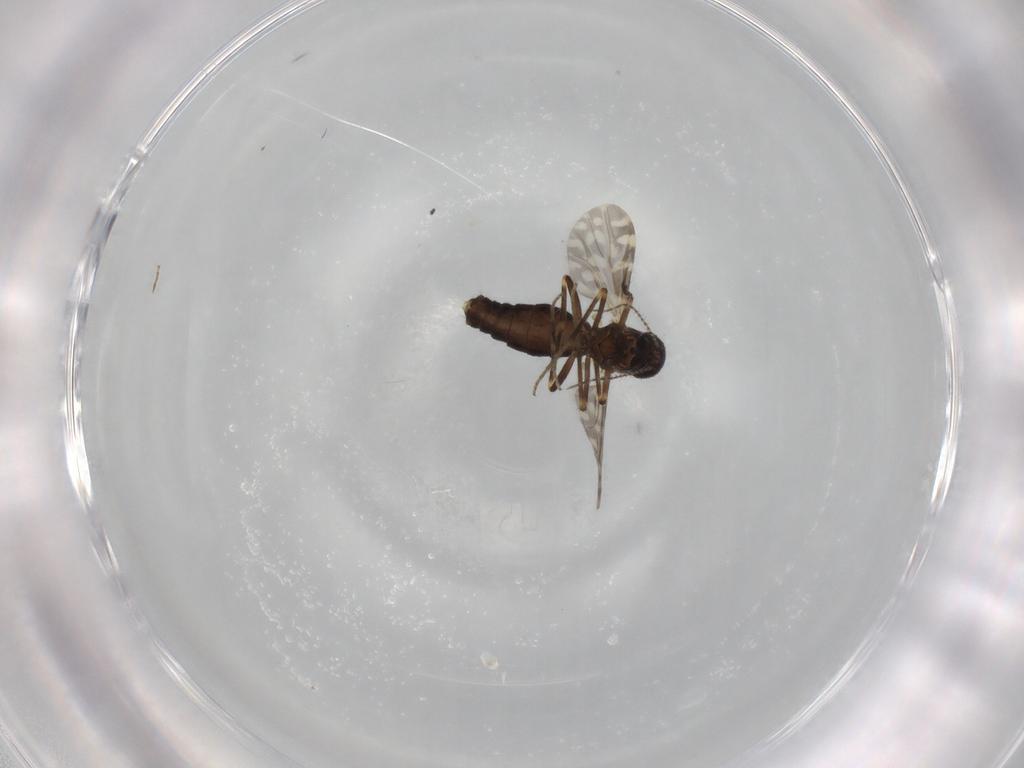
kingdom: Animalia
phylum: Arthropoda
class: Insecta
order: Diptera
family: Ceratopogonidae
